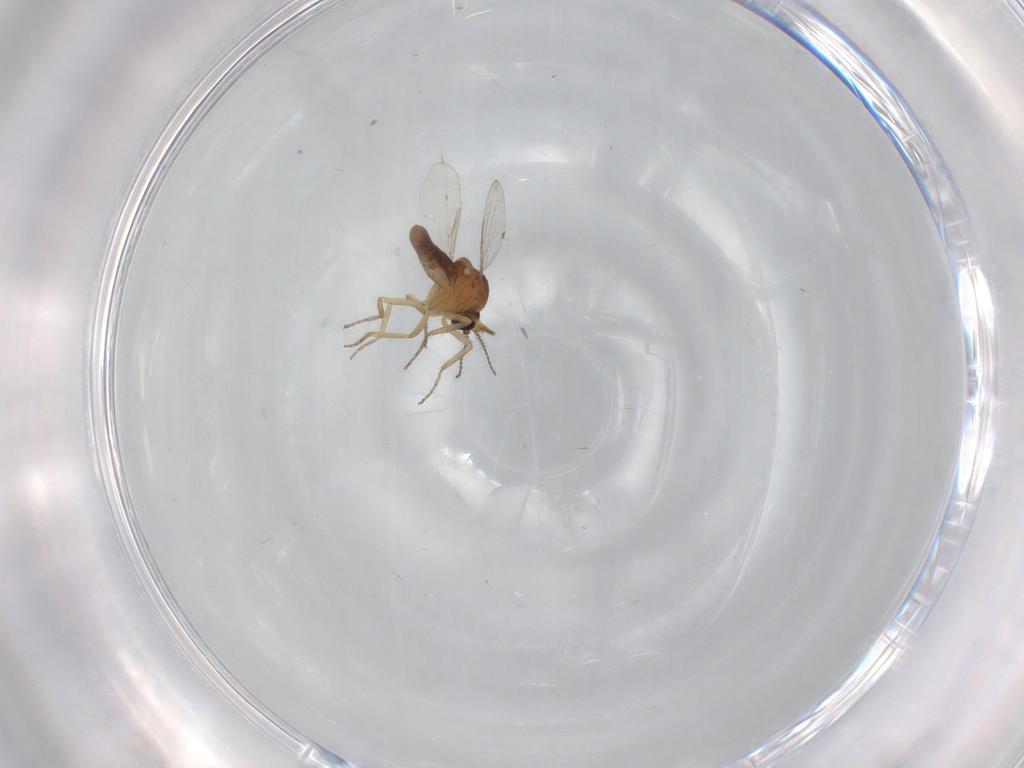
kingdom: Animalia
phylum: Arthropoda
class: Insecta
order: Diptera
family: Ceratopogonidae
